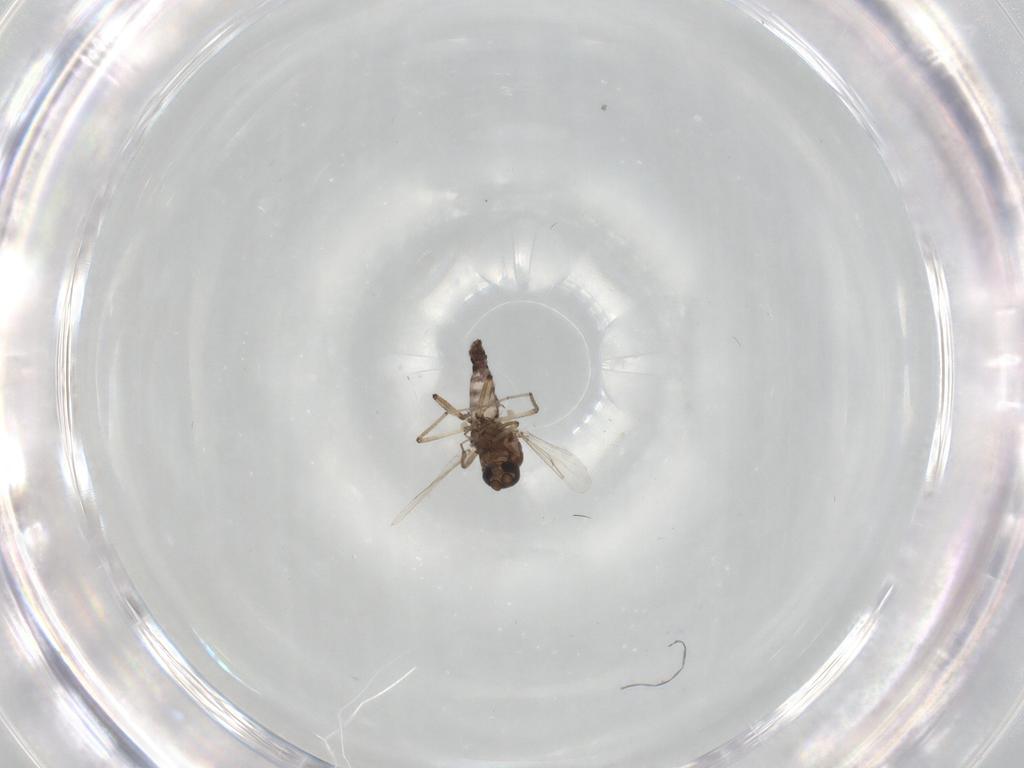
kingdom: Animalia
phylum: Arthropoda
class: Insecta
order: Diptera
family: Ceratopogonidae
